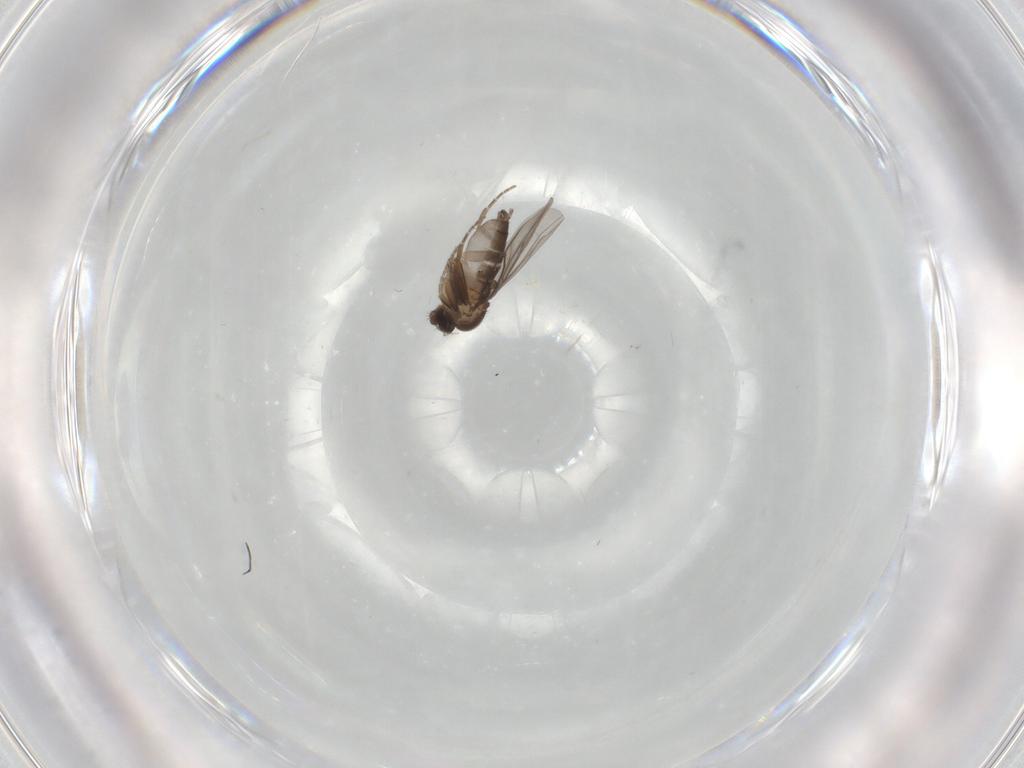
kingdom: Animalia
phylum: Arthropoda
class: Insecta
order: Diptera
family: Phoridae
